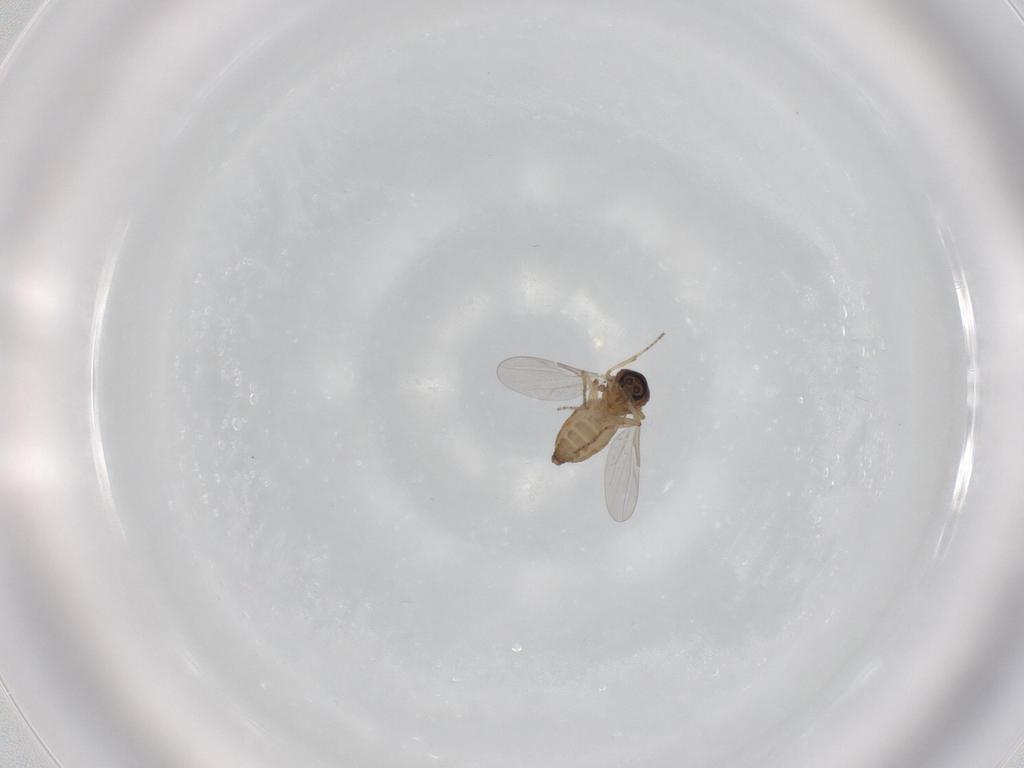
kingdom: Animalia
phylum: Arthropoda
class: Insecta
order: Diptera
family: Ceratopogonidae
